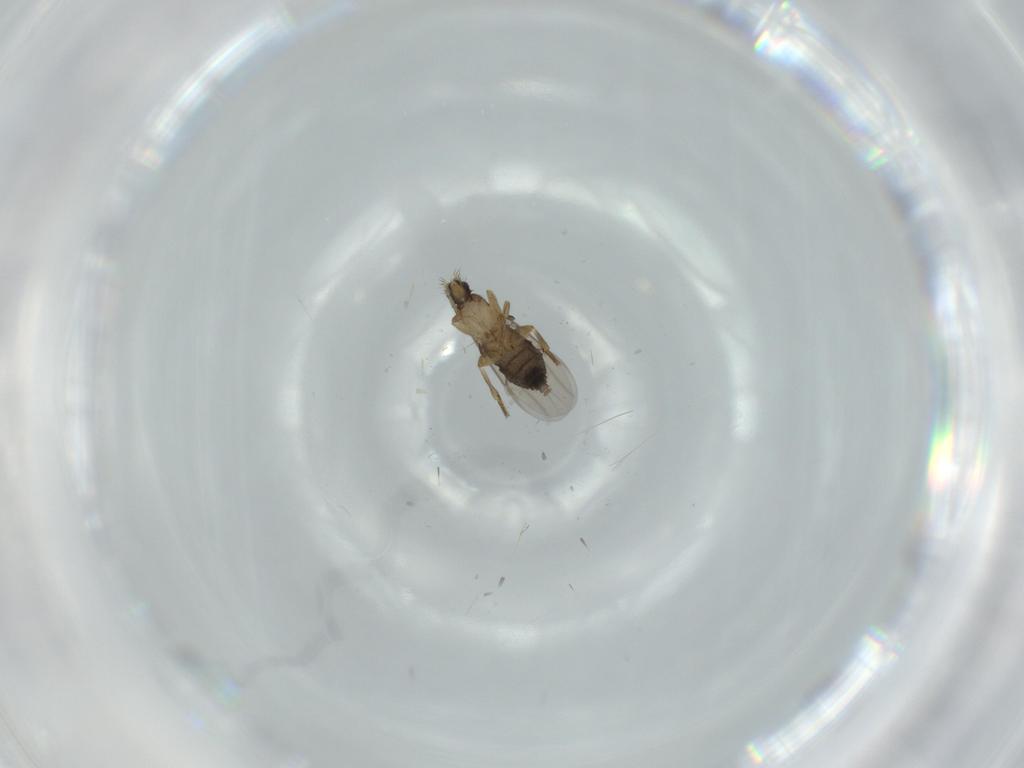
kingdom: Animalia
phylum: Arthropoda
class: Insecta
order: Diptera
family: Phoridae
